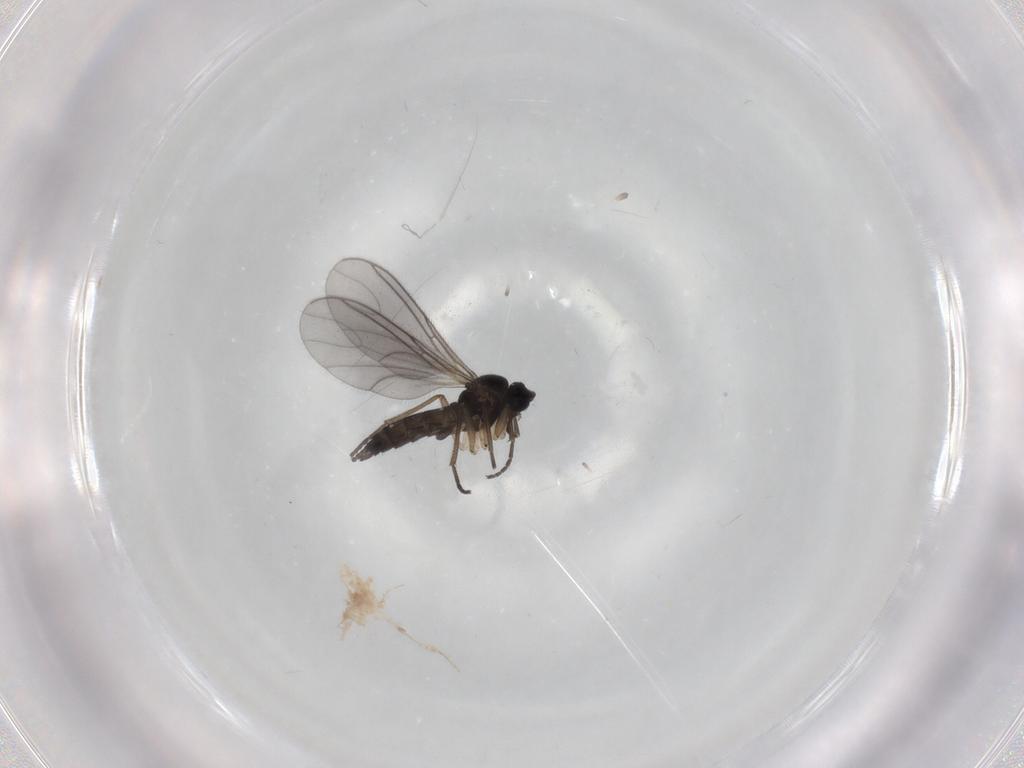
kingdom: Animalia
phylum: Arthropoda
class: Insecta
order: Diptera
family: Sciaridae
